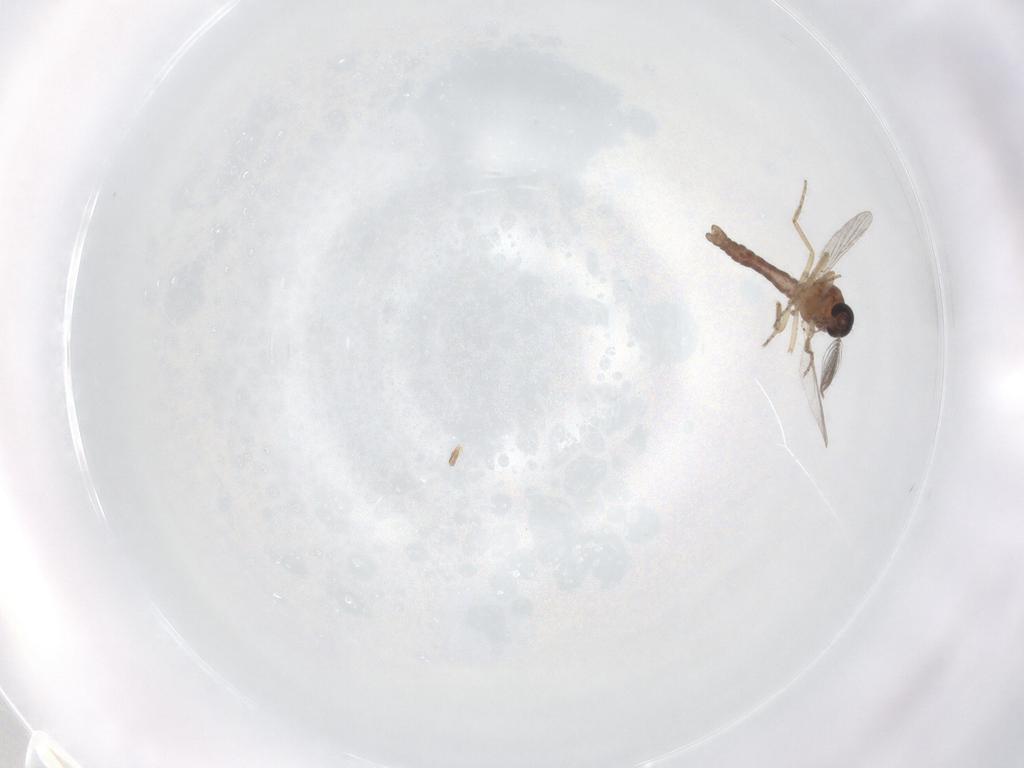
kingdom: Animalia
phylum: Arthropoda
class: Insecta
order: Diptera
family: Ceratopogonidae
